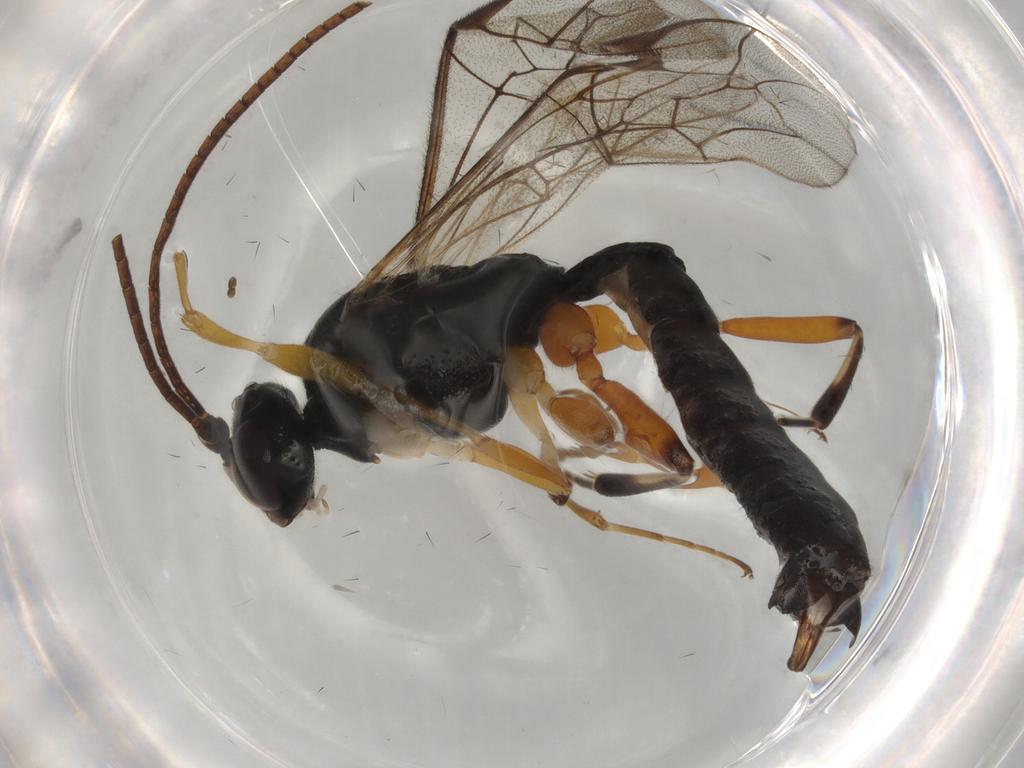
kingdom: Animalia
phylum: Arthropoda
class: Insecta
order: Hymenoptera
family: Ichneumonidae
